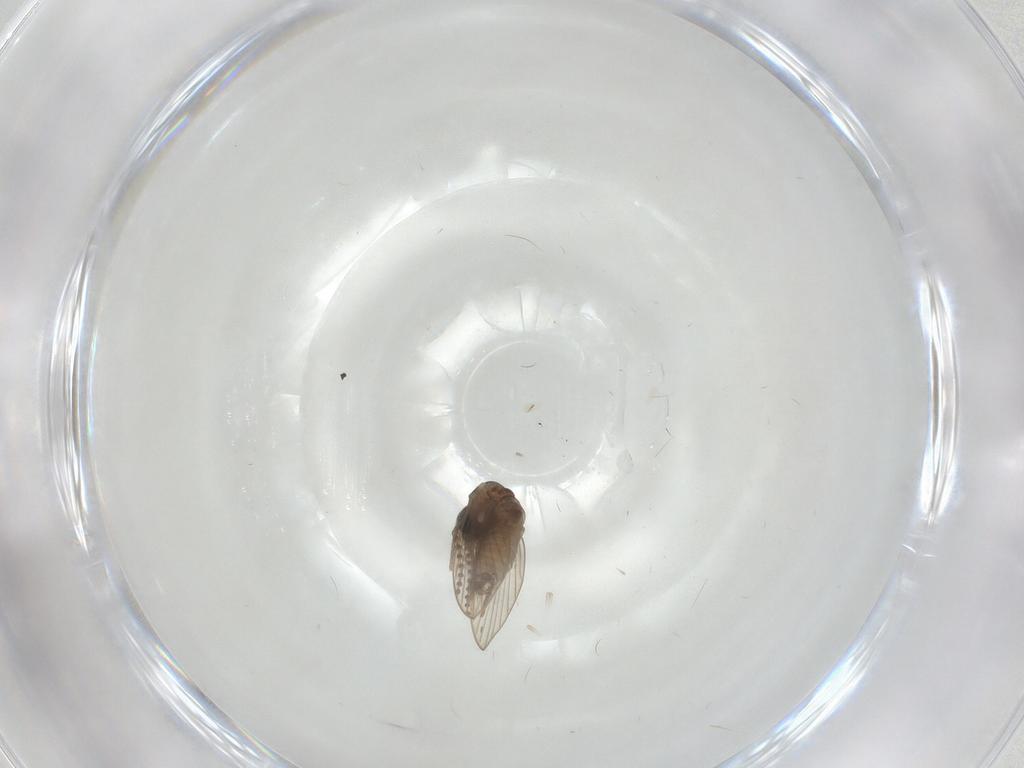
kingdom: Animalia
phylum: Arthropoda
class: Insecta
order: Diptera
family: Psychodidae
